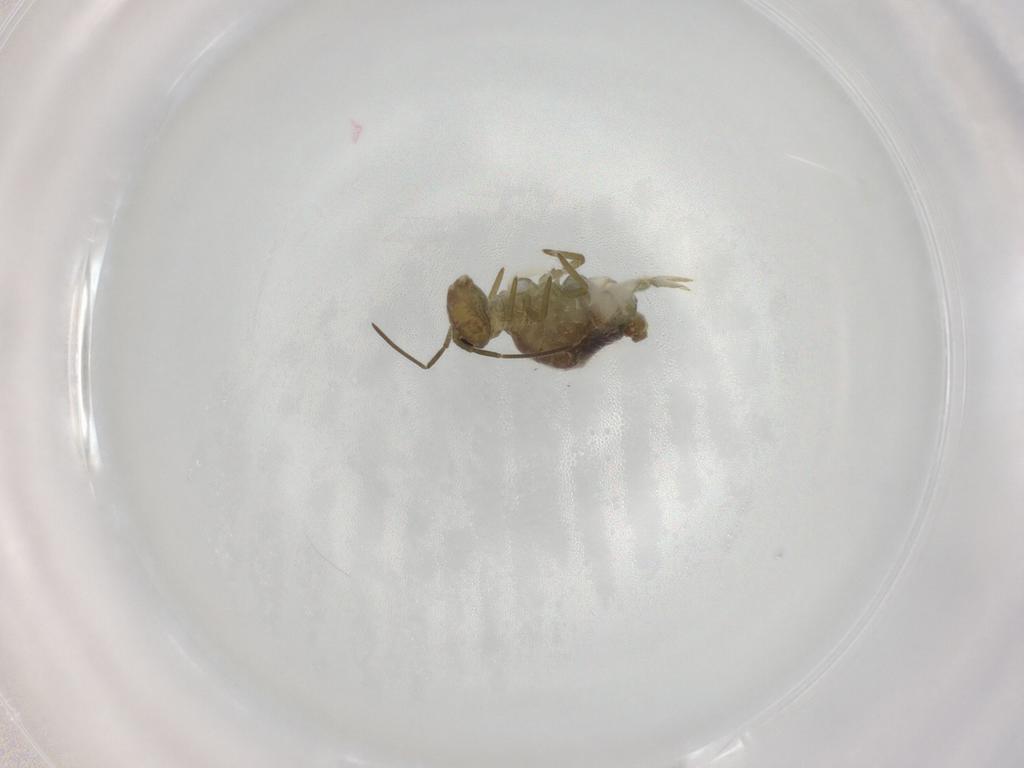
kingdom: Animalia
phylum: Arthropoda
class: Collembola
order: Symphypleona
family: Sminthuridae
